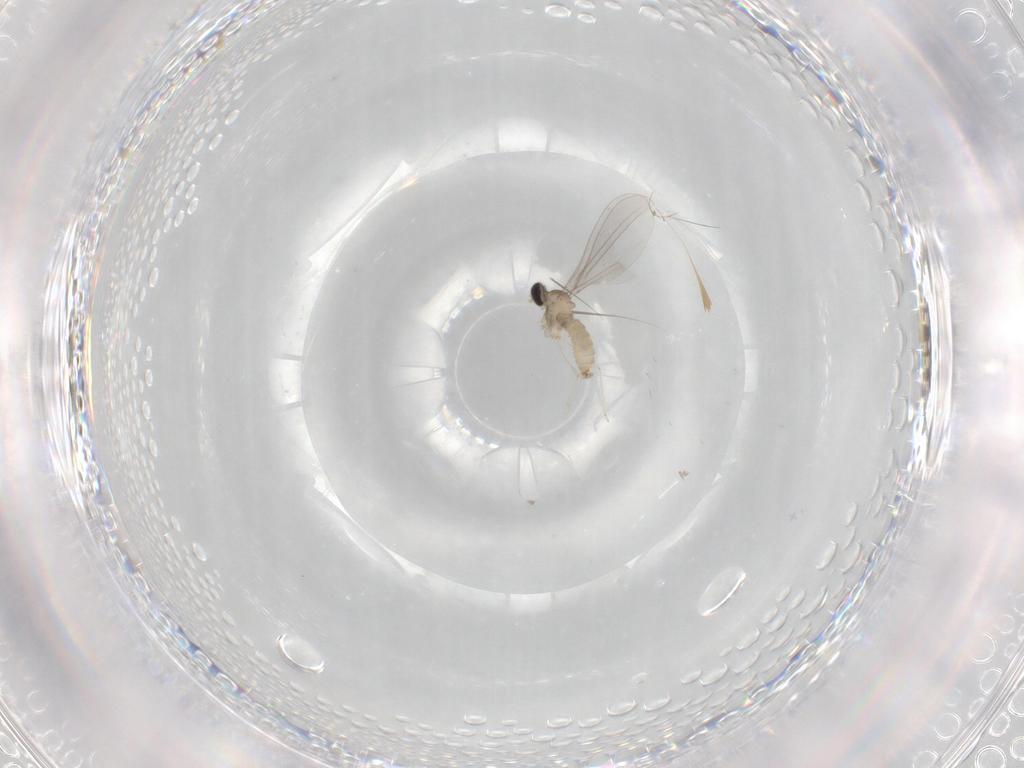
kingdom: Animalia
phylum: Arthropoda
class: Insecta
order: Diptera
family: Cecidomyiidae
